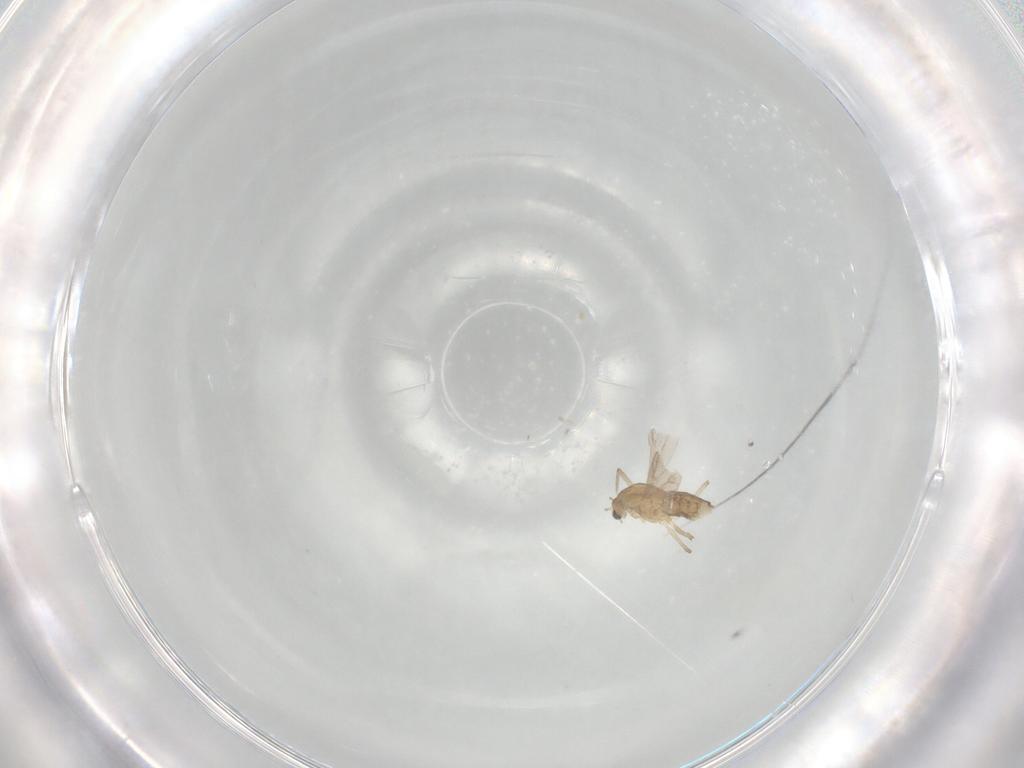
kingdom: Animalia
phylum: Arthropoda
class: Insecta
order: Diptera
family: Chironomidae
